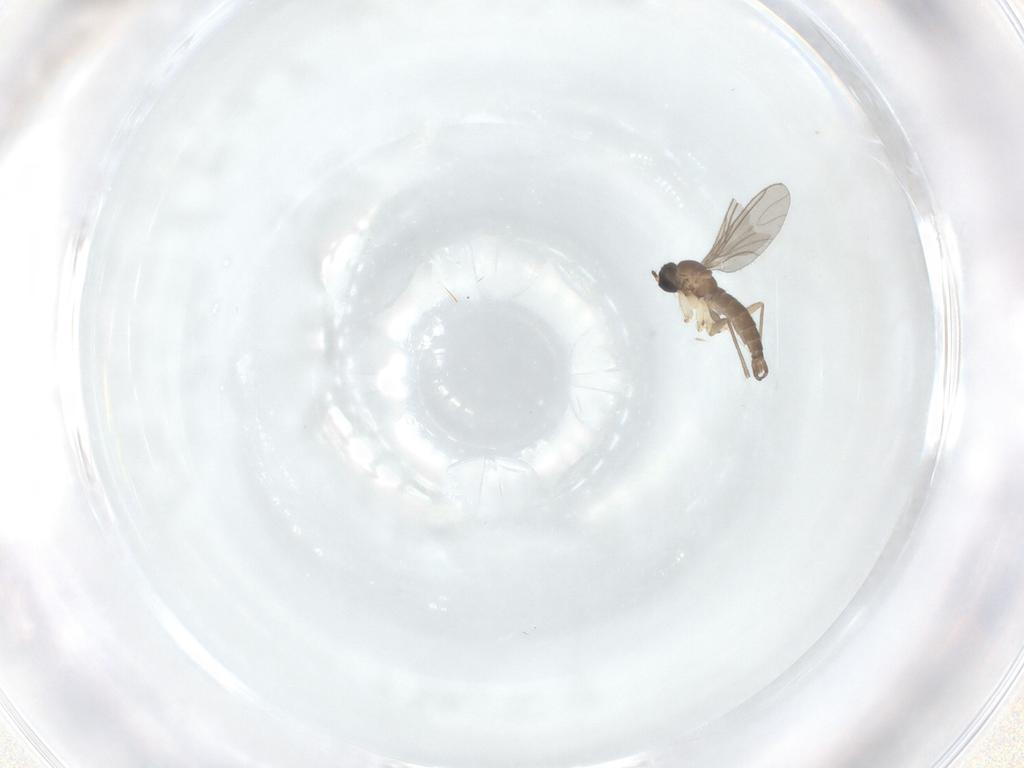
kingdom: Animalia
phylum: Arthropoda
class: Insecta
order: Diptera
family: Sciaridae
